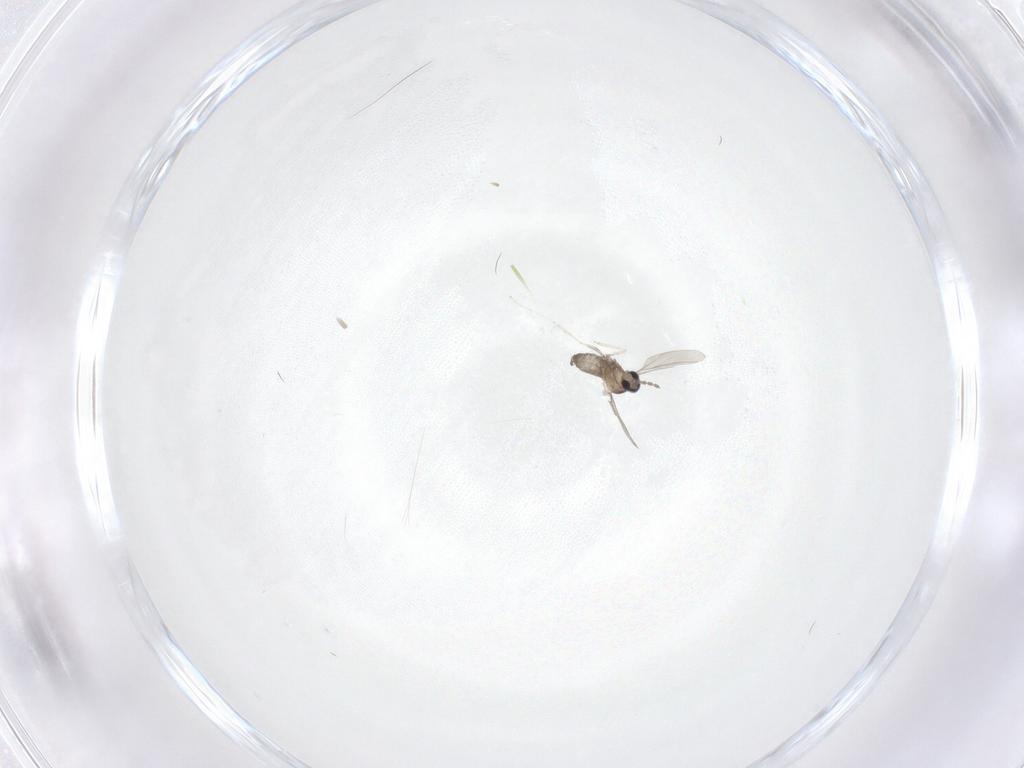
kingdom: Animalia
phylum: Arthropoda
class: Insecta
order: Diptera
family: Cecidomyiidae
